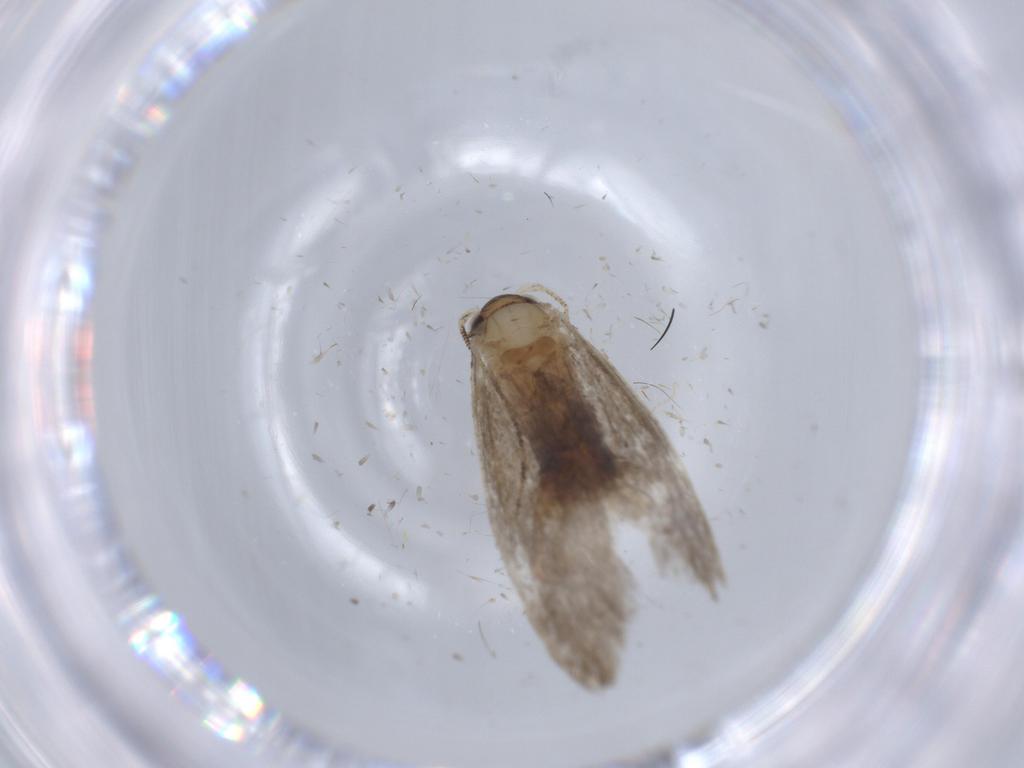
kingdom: Animalia
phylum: Arthropoda
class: Insecta
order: Lepidoptera
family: Tineidae
